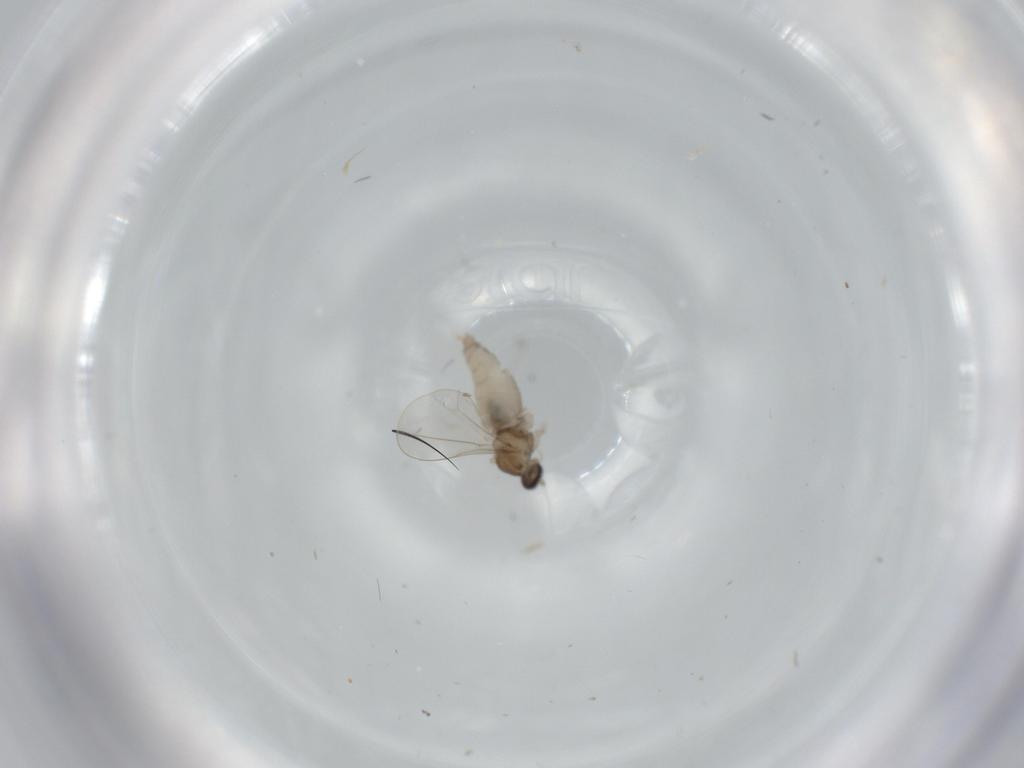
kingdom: Animalia
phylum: Arthropoda
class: Insecta
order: Diptera
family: Cecidomyiidae
